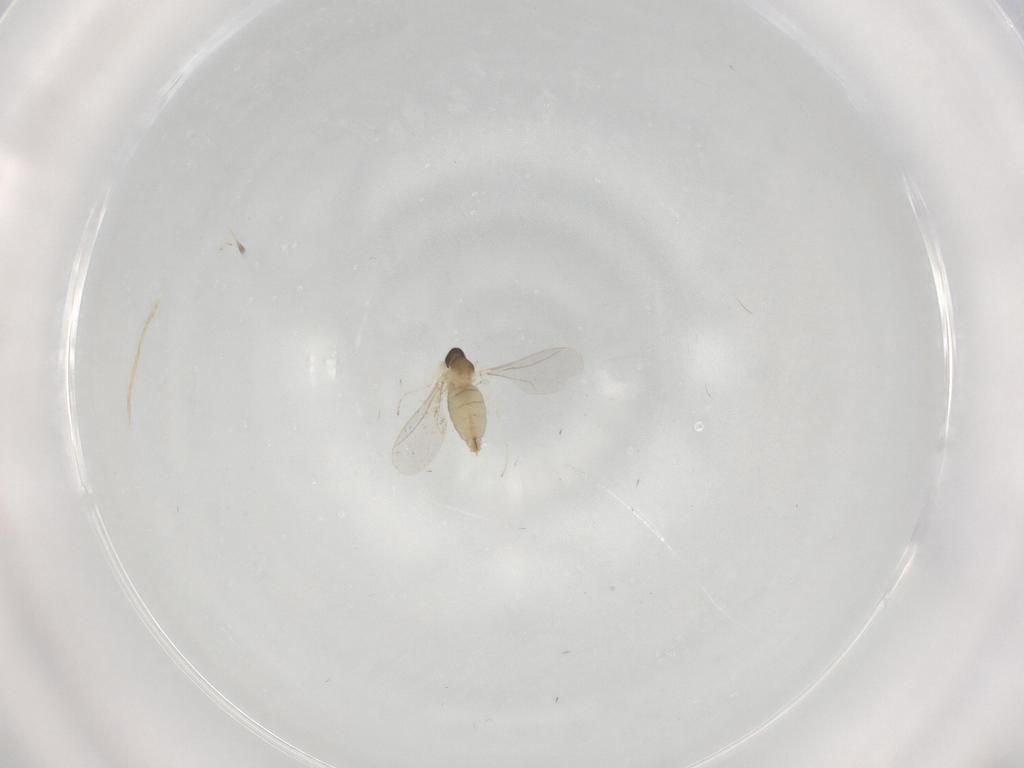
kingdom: Animalia
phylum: Arthropoda
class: Insecta
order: Diptera
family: Cecidomyiidae
